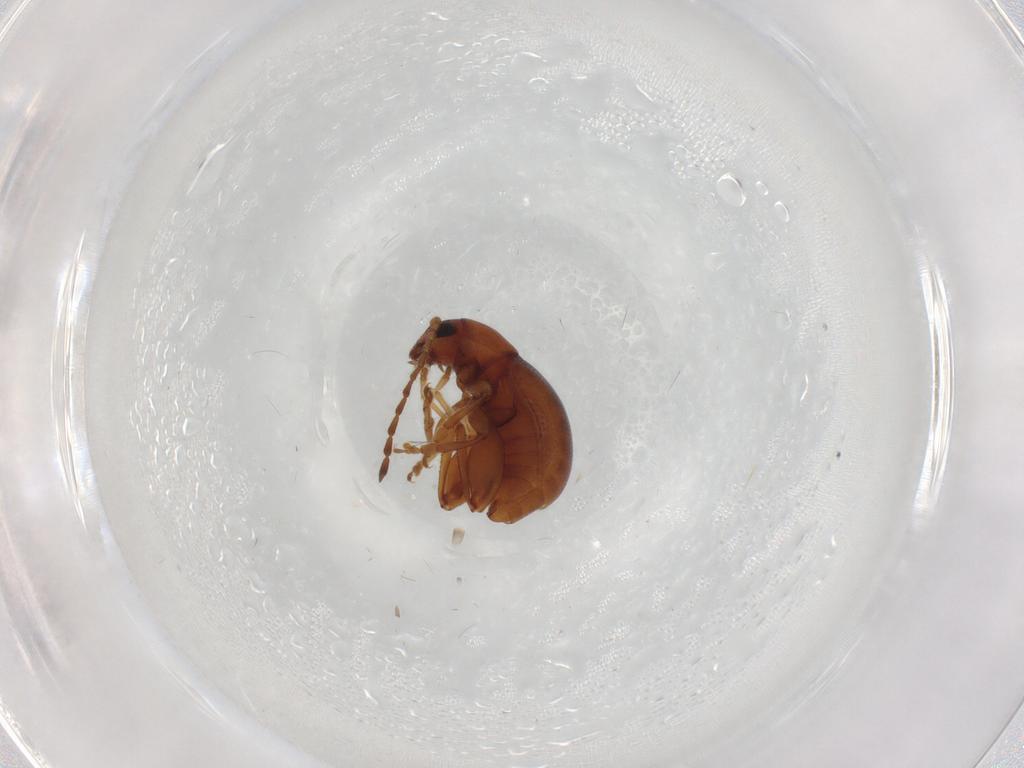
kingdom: Animalia
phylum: Arthropoda
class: Insecta
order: Coleoptera
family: Chrysomelidae
